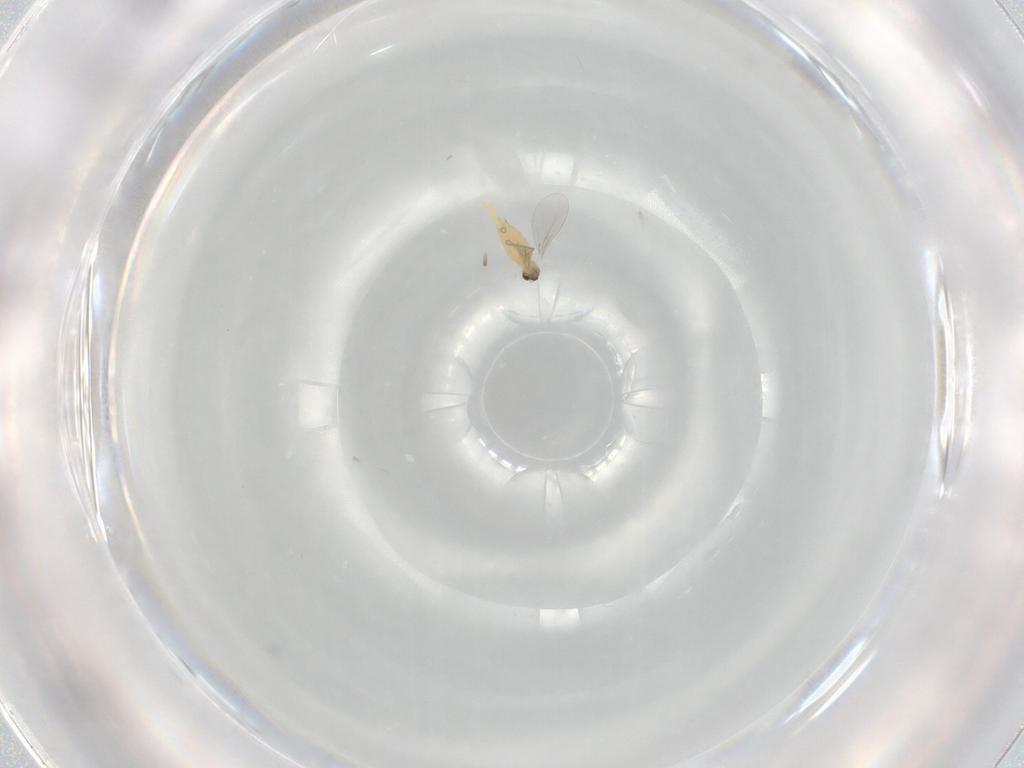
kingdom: Animalia
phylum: Arthropoda
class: Insecta
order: Diptera
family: Cecidomyiidae
